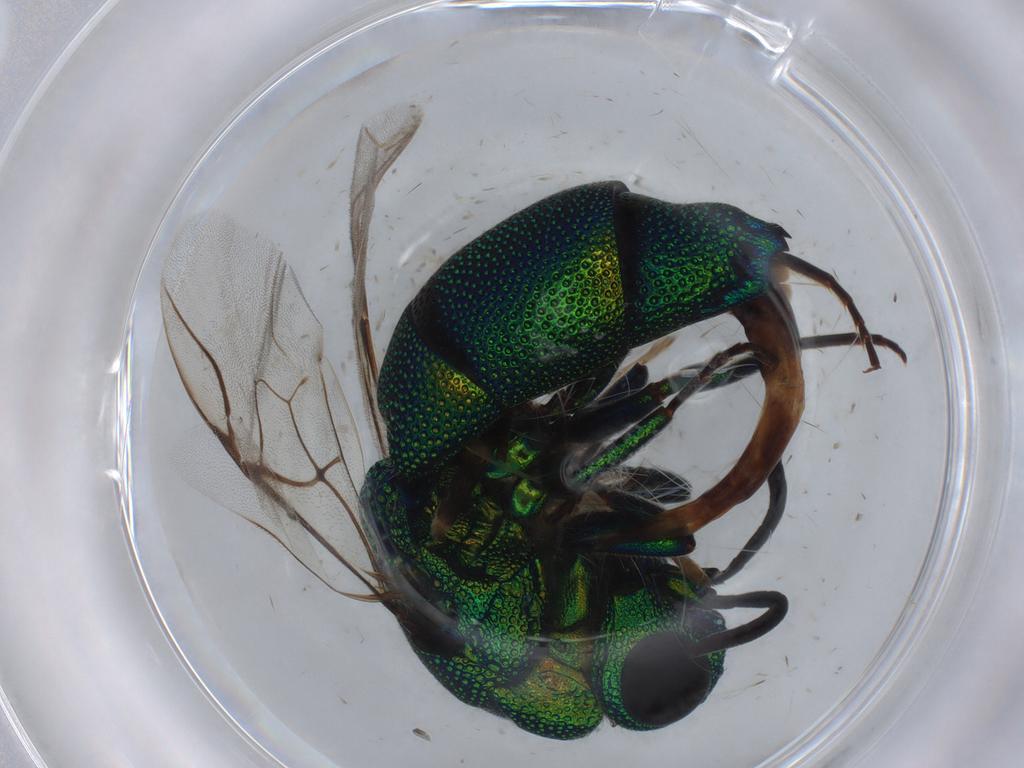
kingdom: Animalia
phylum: Arthropoda
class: Insecta
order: Hymenoptera
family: Chrysididae
